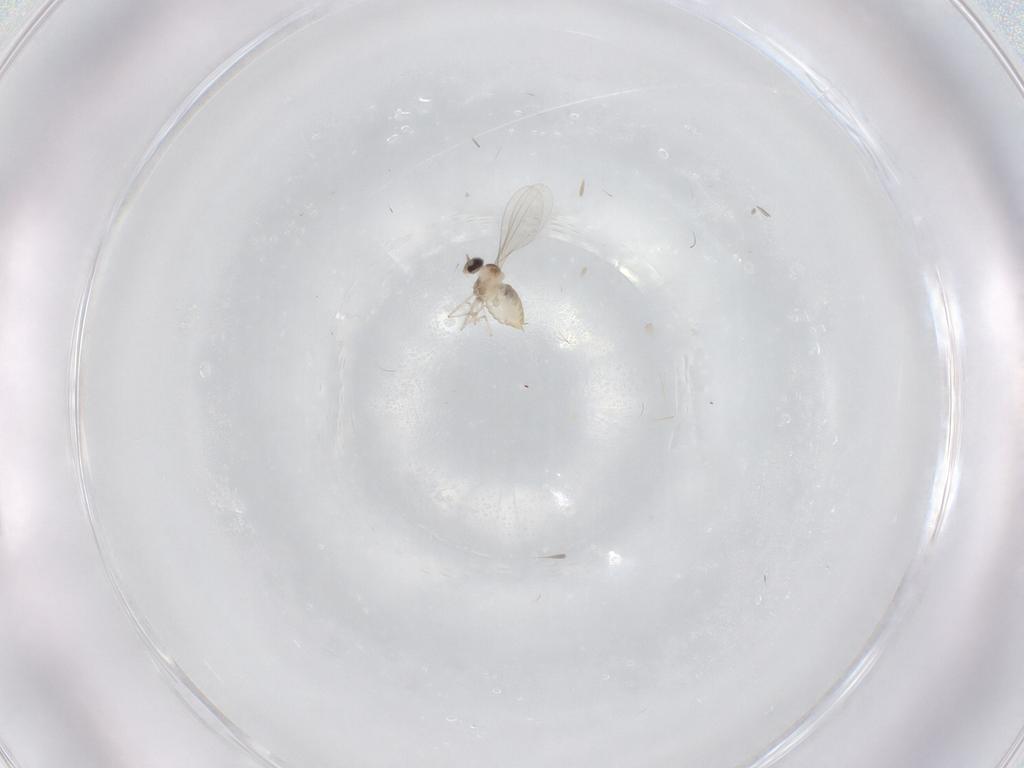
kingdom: Animalia
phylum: Arthropoda
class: Insecta
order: Diptera
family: Cecidomyiidae
